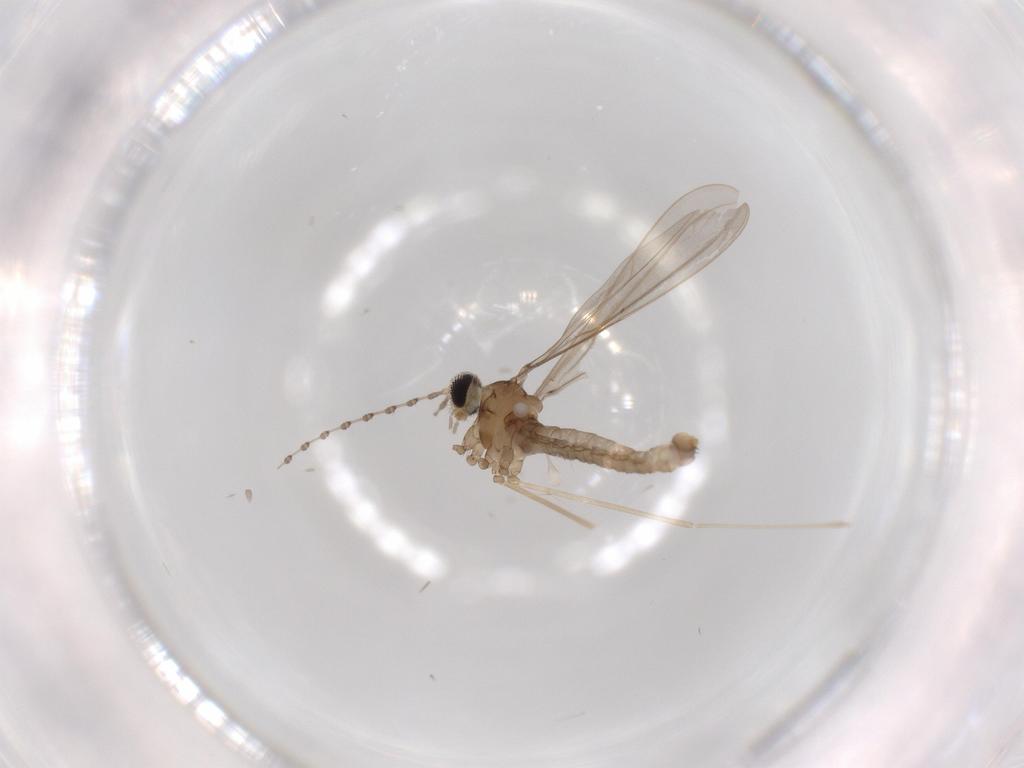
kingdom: Animalia
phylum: Arthropoda
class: Insecta
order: Diptera
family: Cecidomyiidae
